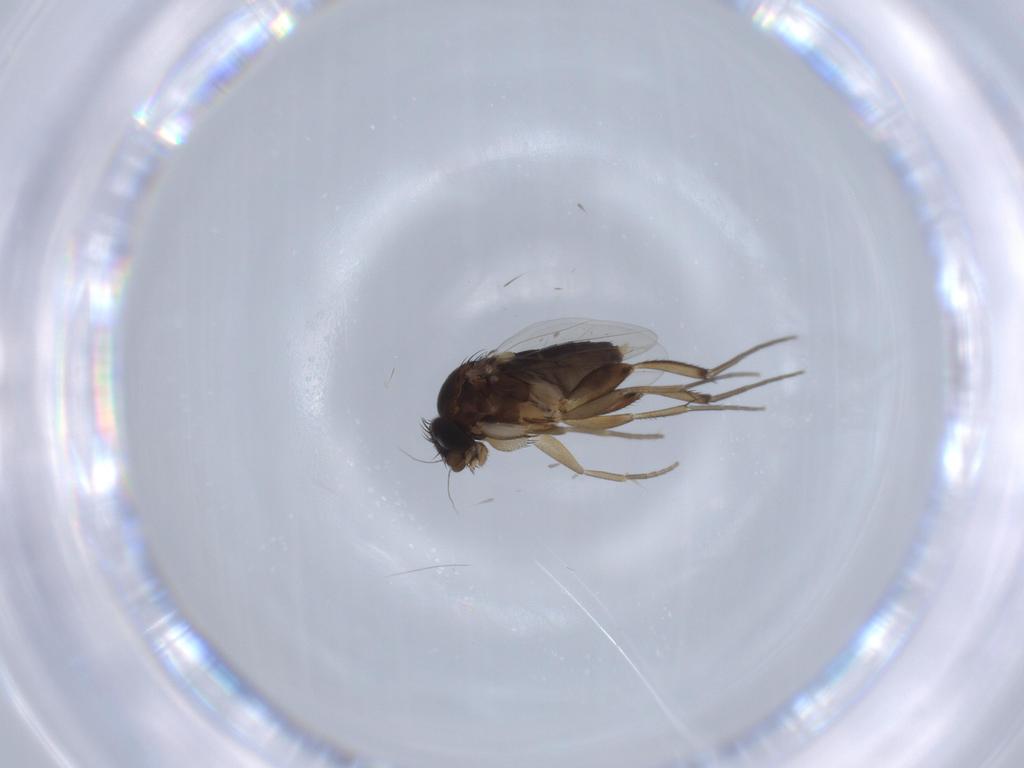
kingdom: Animalia
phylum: Arthropoda
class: Insecta
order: Diptera
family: Phoridae
